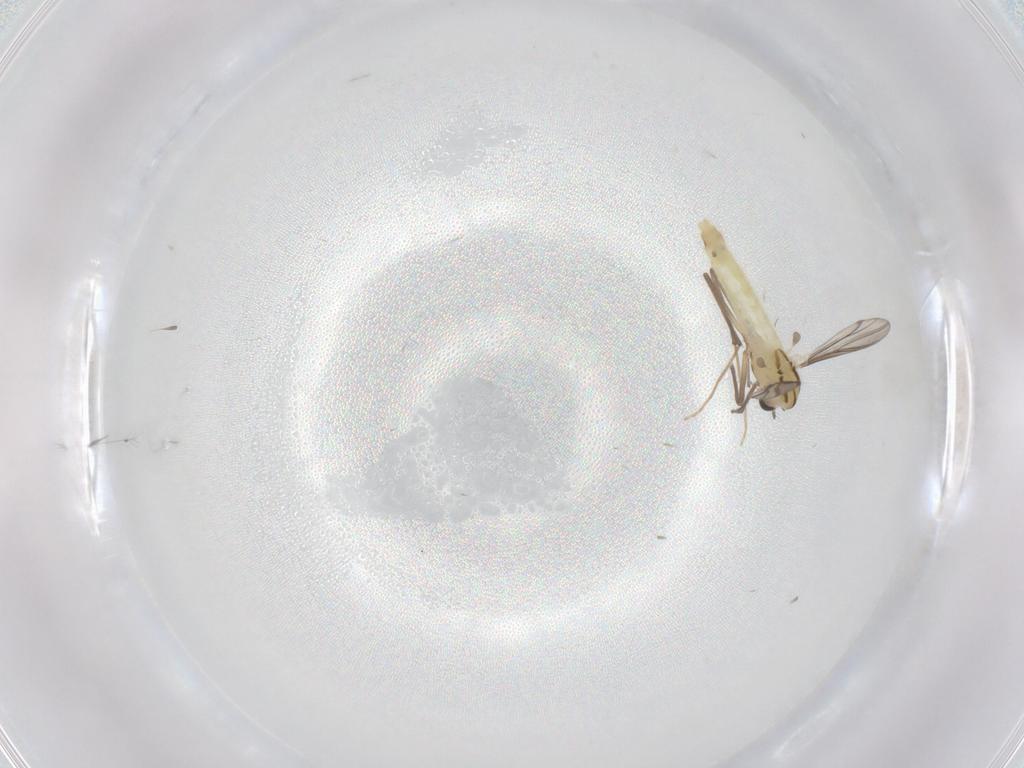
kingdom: Animalia
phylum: Arthropoda
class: Insecta
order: Diptera
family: Chironomidae
